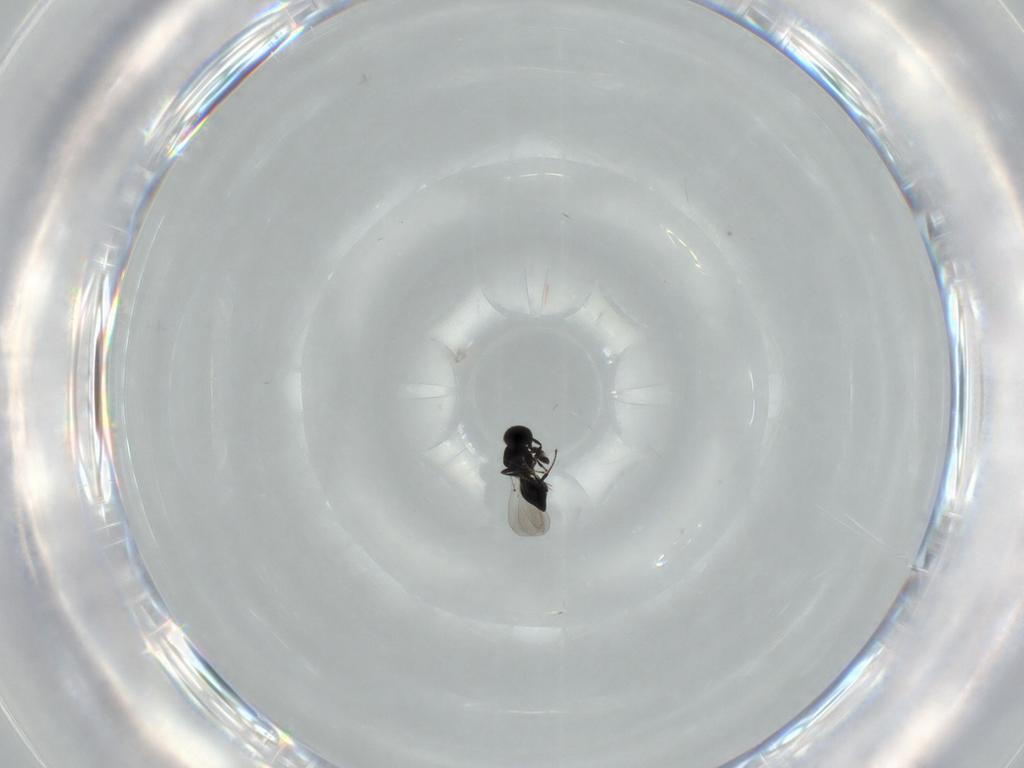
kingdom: Animalia
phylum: Arthropoda
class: Insecta
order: Hymenoptera
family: Platygastridae
